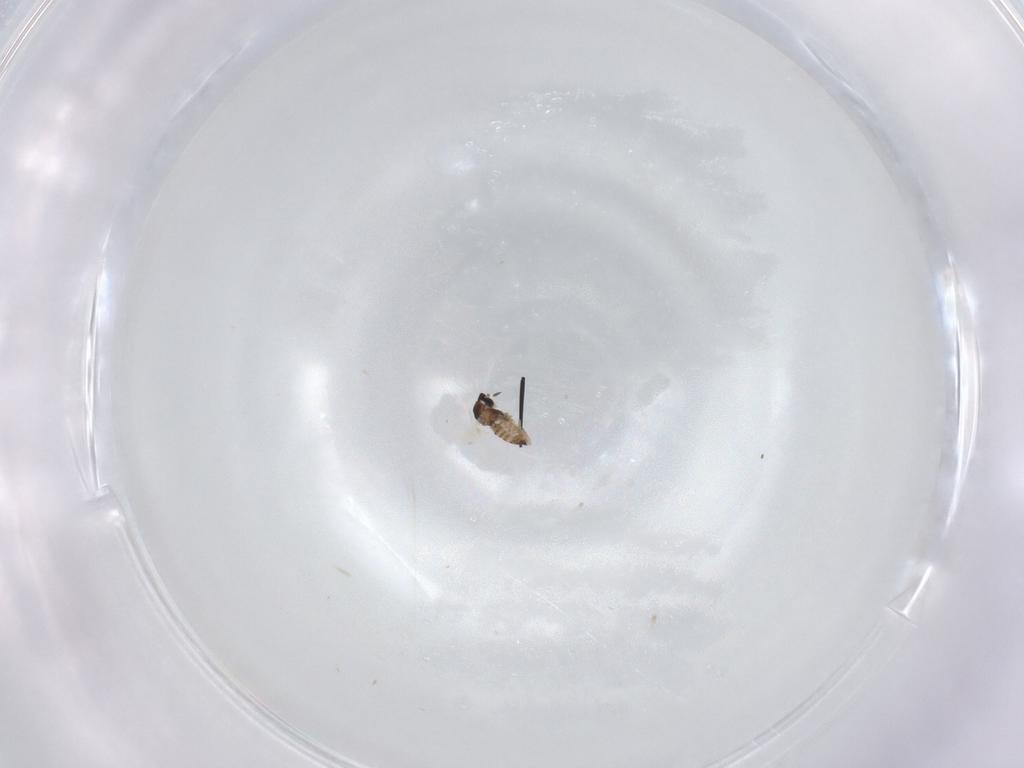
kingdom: Animalia
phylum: Arthropoda
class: Insecta
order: Diptera
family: Cecidomyiidae
